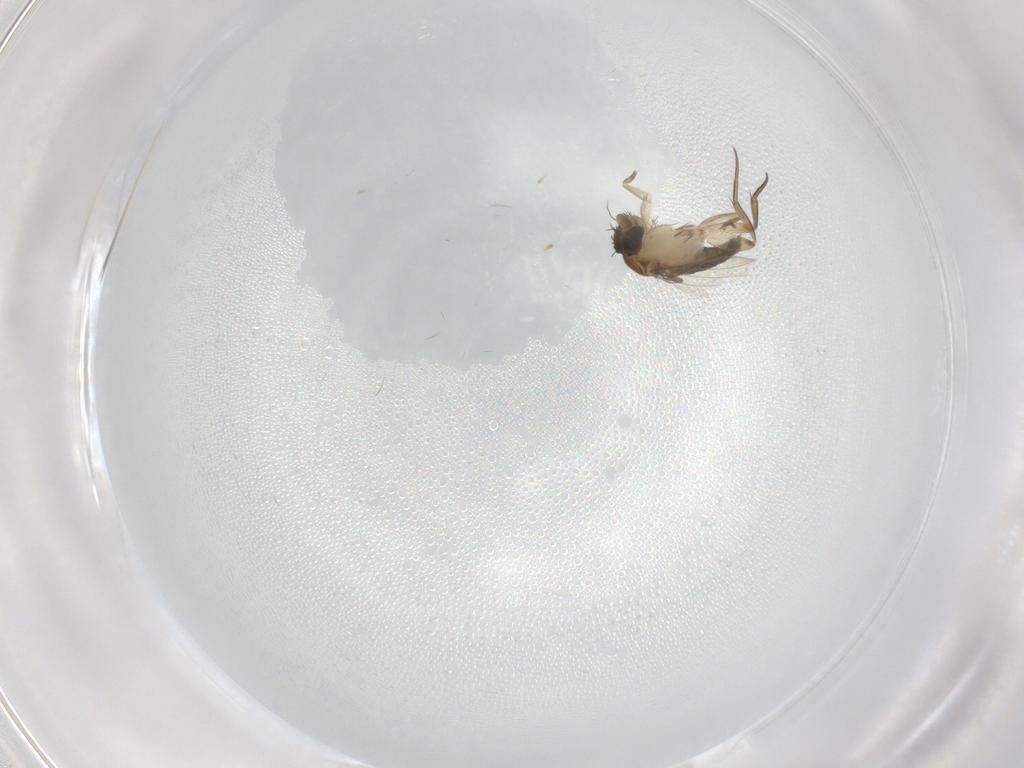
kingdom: Animalia
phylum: Arthropoda
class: Insecta
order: Diptera
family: Phoridae
